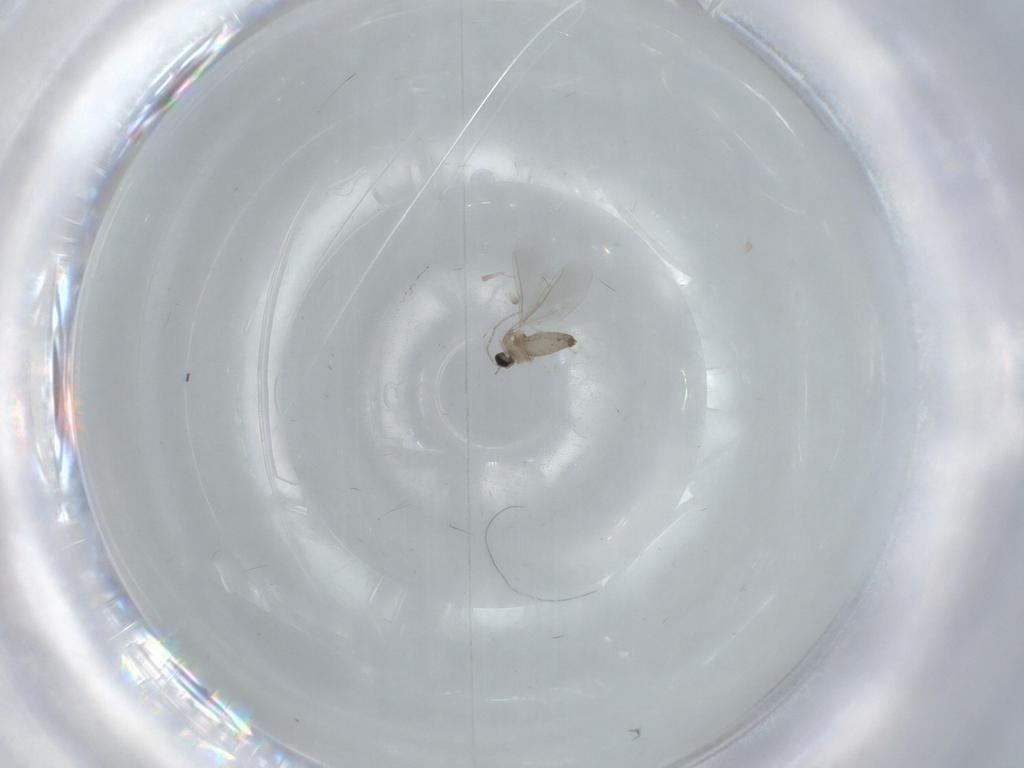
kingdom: Animalia
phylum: Arthropoda
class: Insecta
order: Diptera
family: Cecidomyiidae
